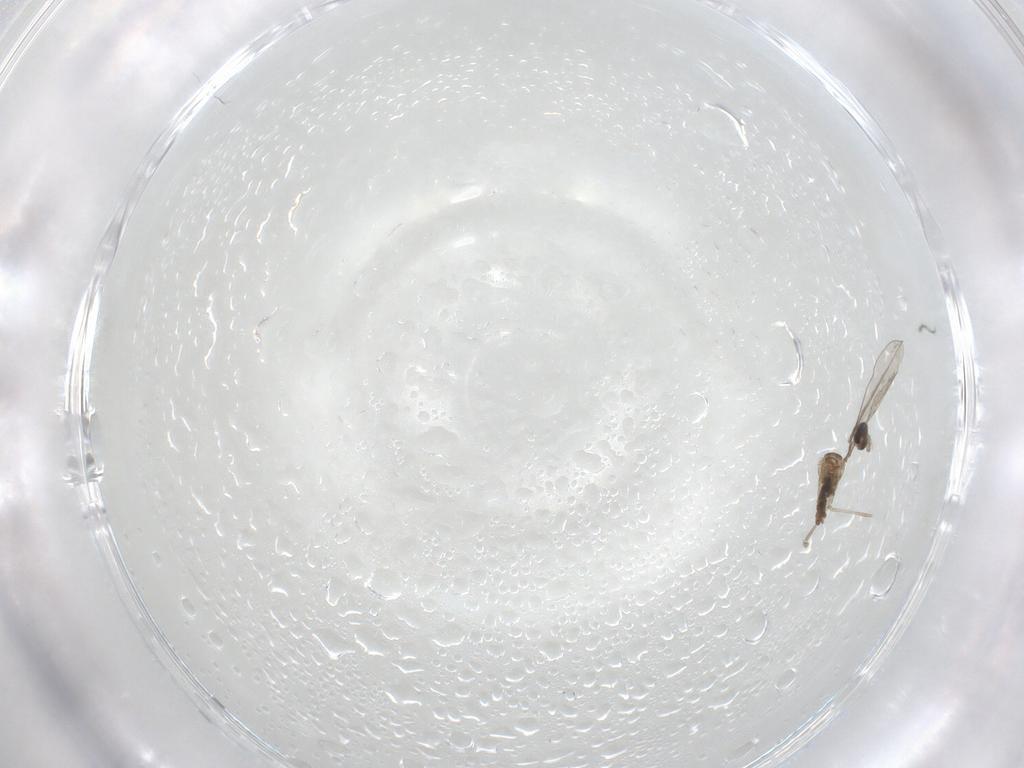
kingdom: Animalia
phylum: Arthropoda
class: Insecta
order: Diptera
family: Cecidomyiidae
